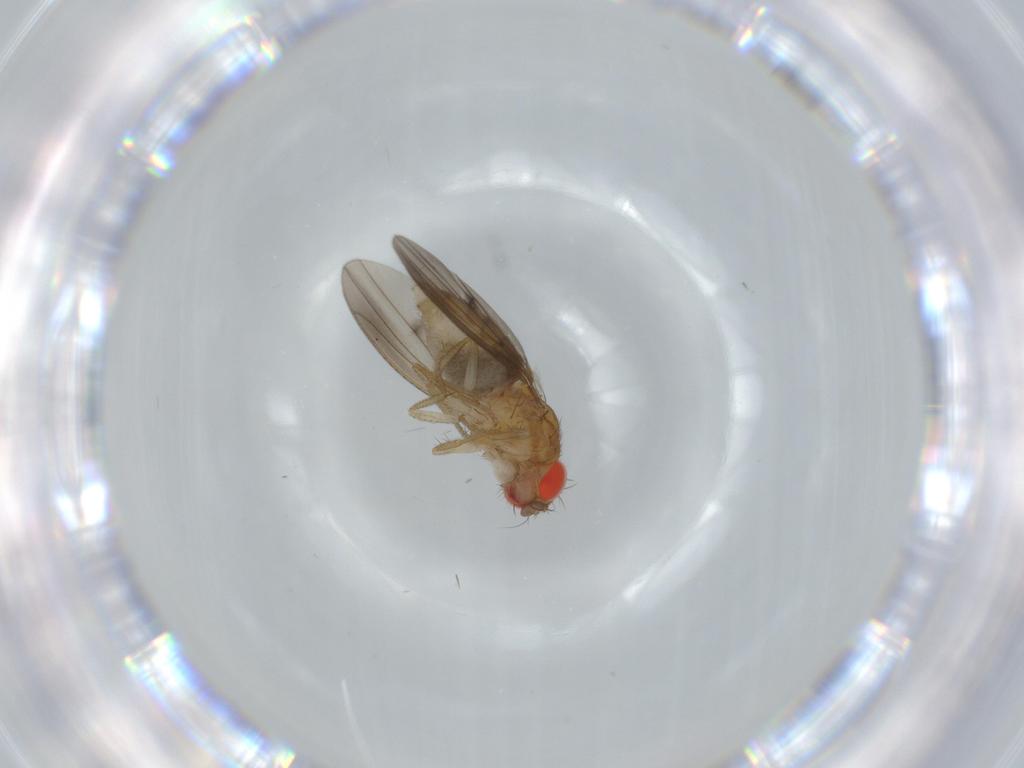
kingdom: Animalia
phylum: Arthropoda
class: Insecta
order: Diptera
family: Drosophilidae
